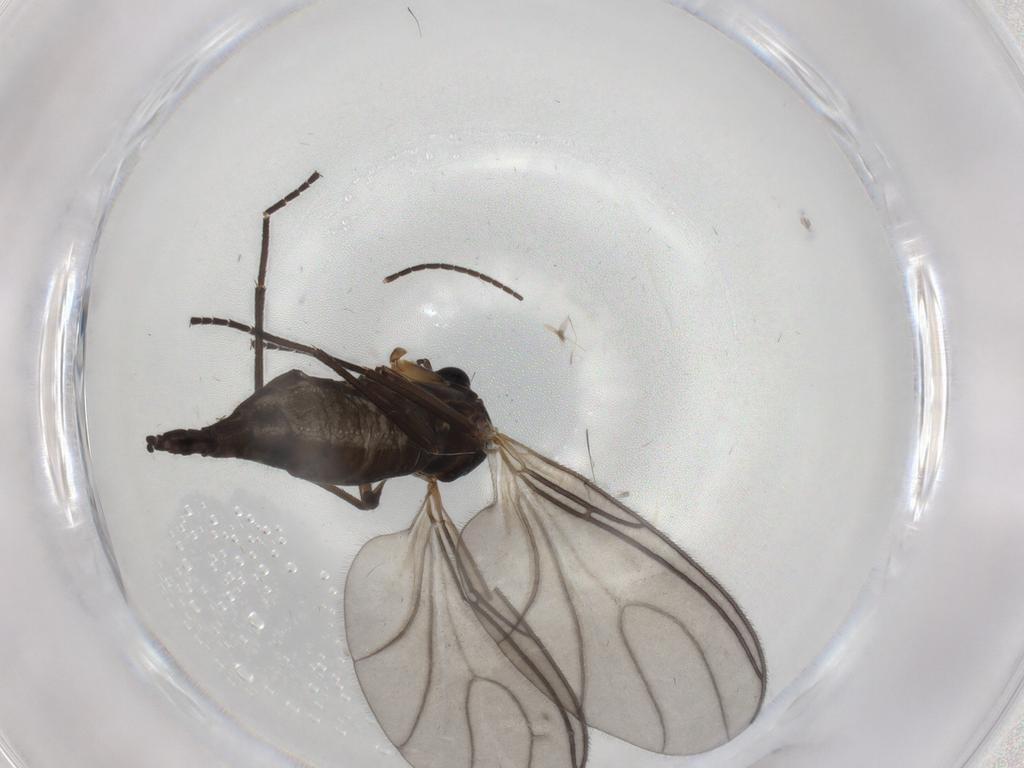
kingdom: Animalia
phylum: Arthropoda
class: Insecta
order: Diptera
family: Sciaridae
